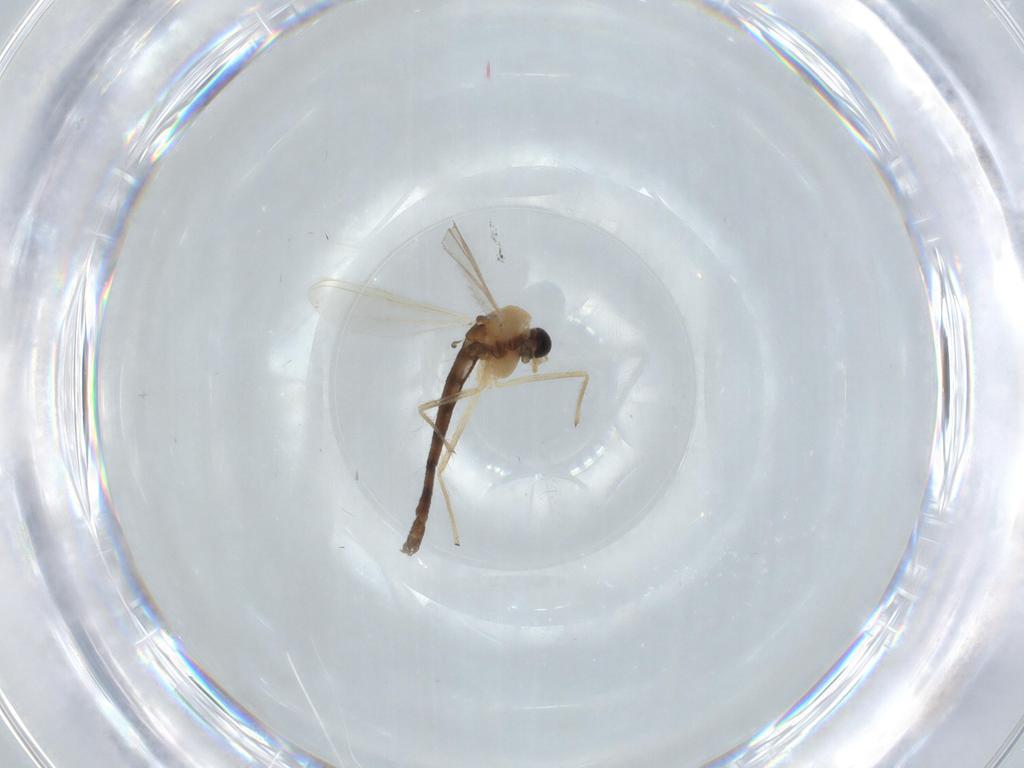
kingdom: Animalia
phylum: Arthropoda
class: Insecta
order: Diptera
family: Chironomidae
